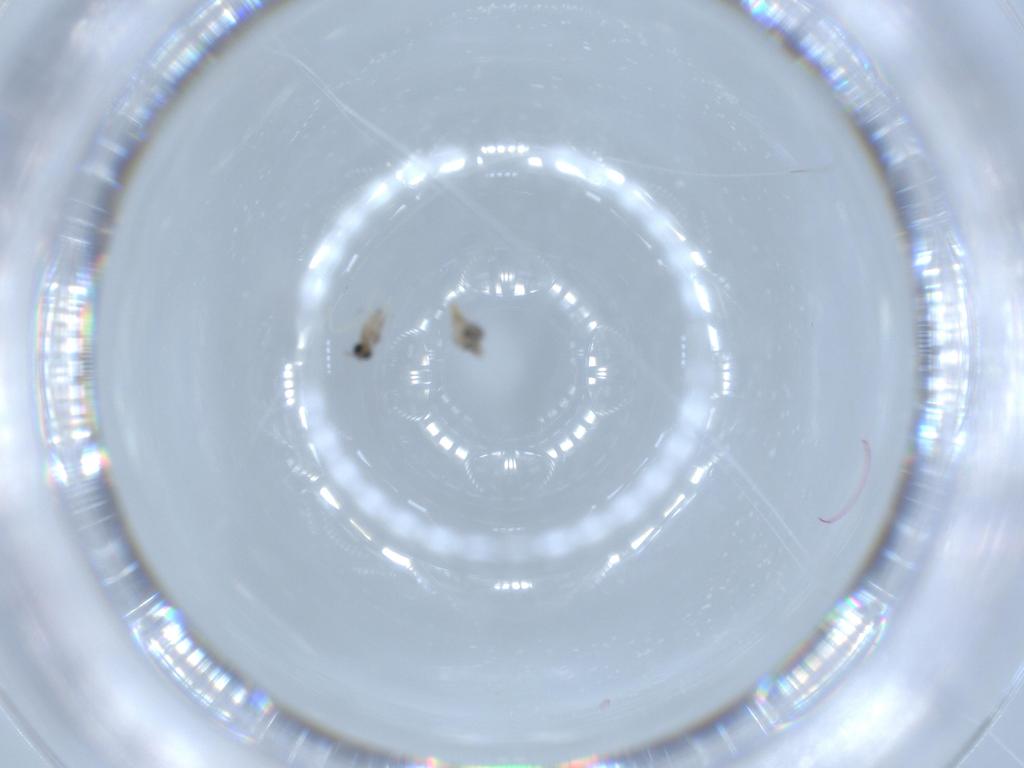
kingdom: Animalia
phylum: Arthropoda
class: Insecta
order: Diptera
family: Cecidomyiidae
